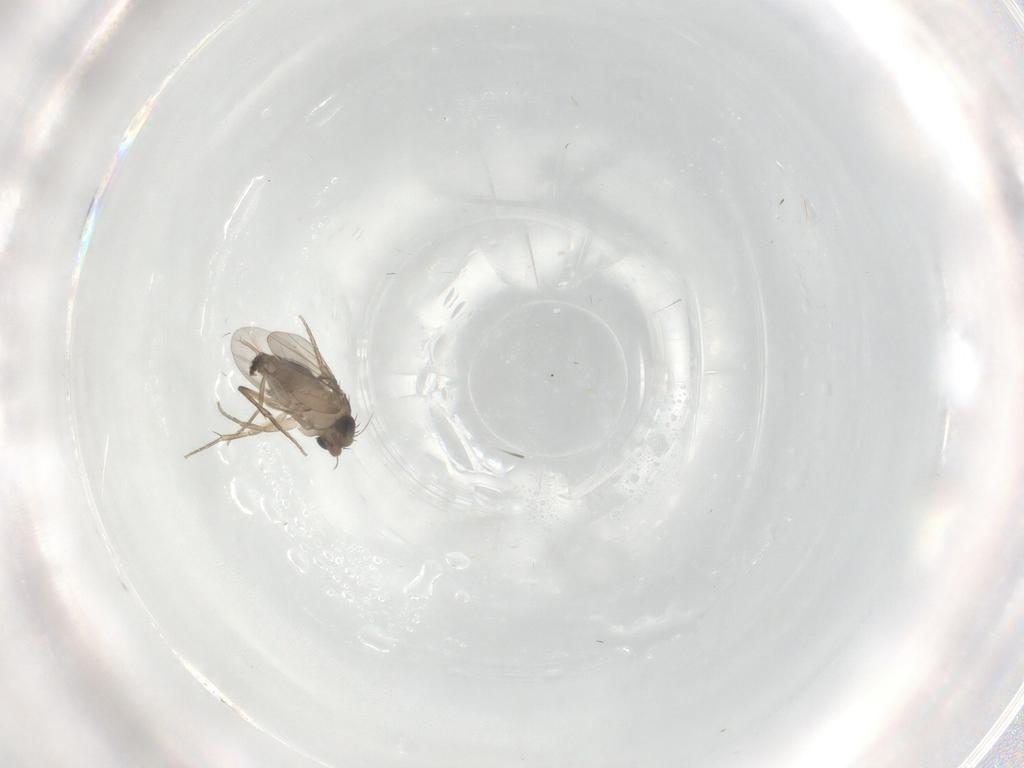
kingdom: Animalia
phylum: Arthropoda
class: Insecta
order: Diptera
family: Phoridae
